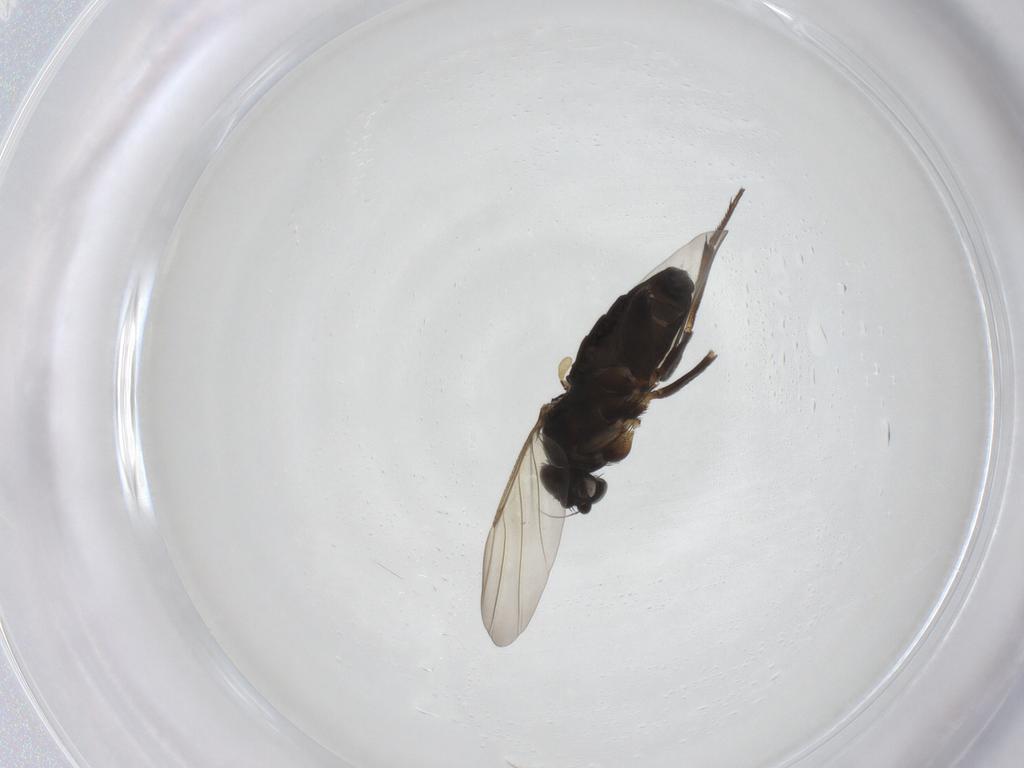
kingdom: Animalia
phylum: Arthropoda
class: Insecta
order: Diptera
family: Phoridae
